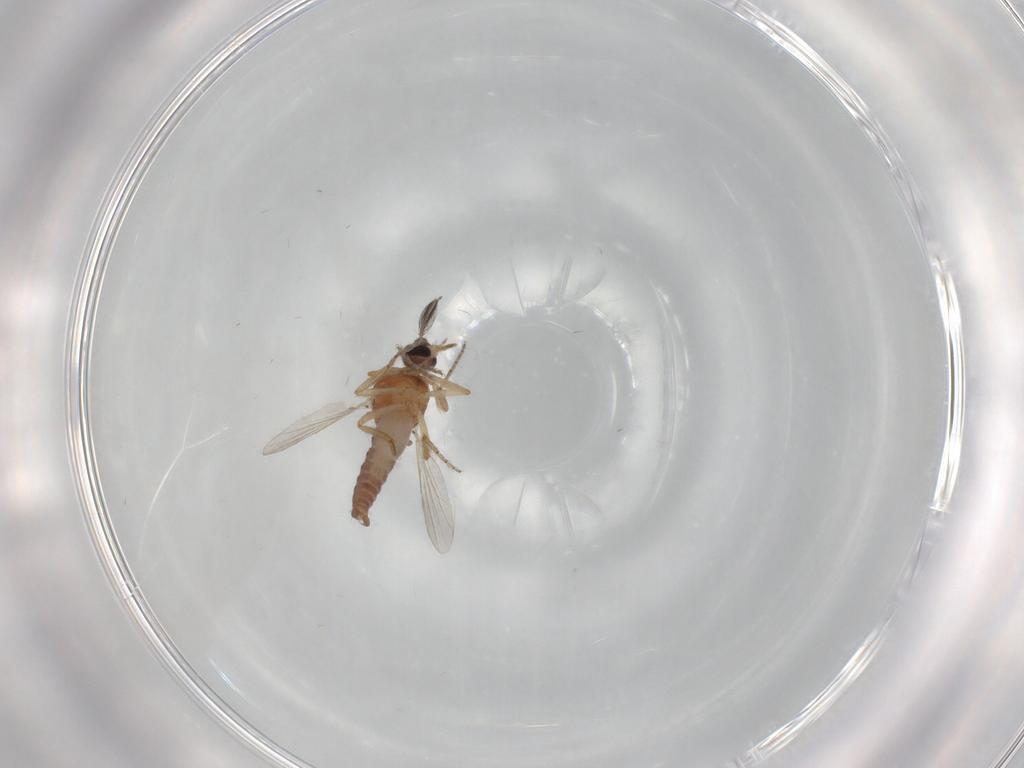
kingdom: Animalia
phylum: Arthropoda
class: Insecta
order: Diptera
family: Ceratopogonidae
